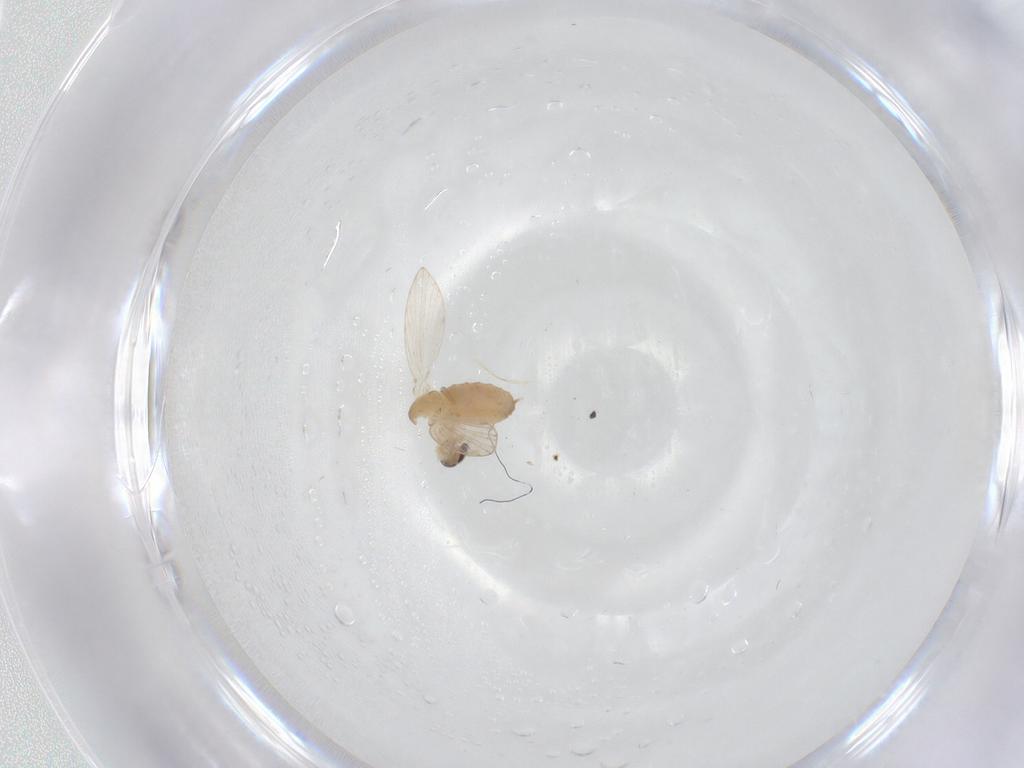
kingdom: Animalia
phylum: Arthropoda
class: Insecta
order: Diptera
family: Psychodidae
